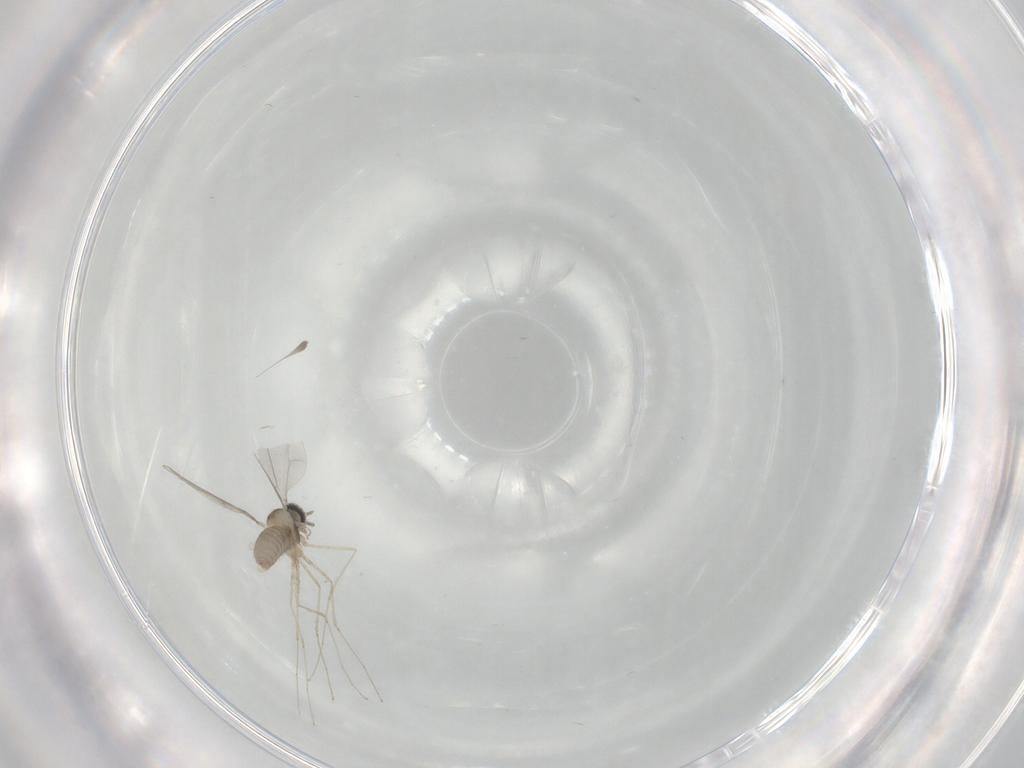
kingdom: Animalia
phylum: Arthropoda
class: Insecta
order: Diptera
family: Cecidomyiidae
